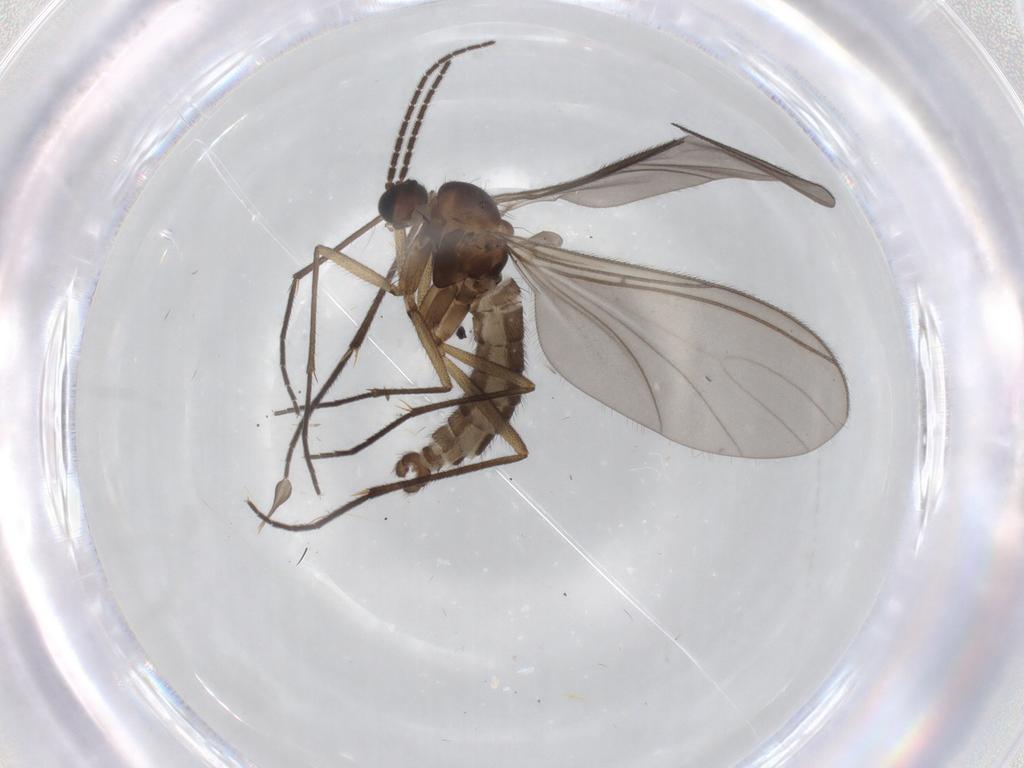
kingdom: Animalia
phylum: Arthropoda
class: Insecta
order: Diptera
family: Sciaridae
